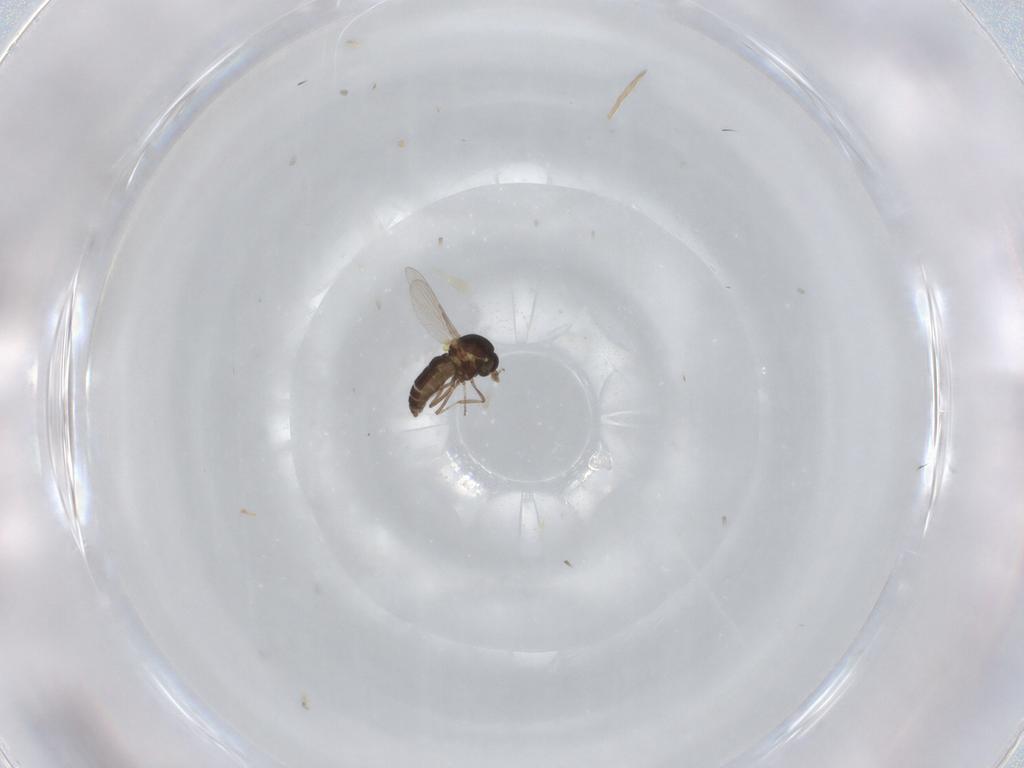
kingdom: Animalia
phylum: Arthropoda
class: Insecta
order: Diptera
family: Ceratopogonidae
